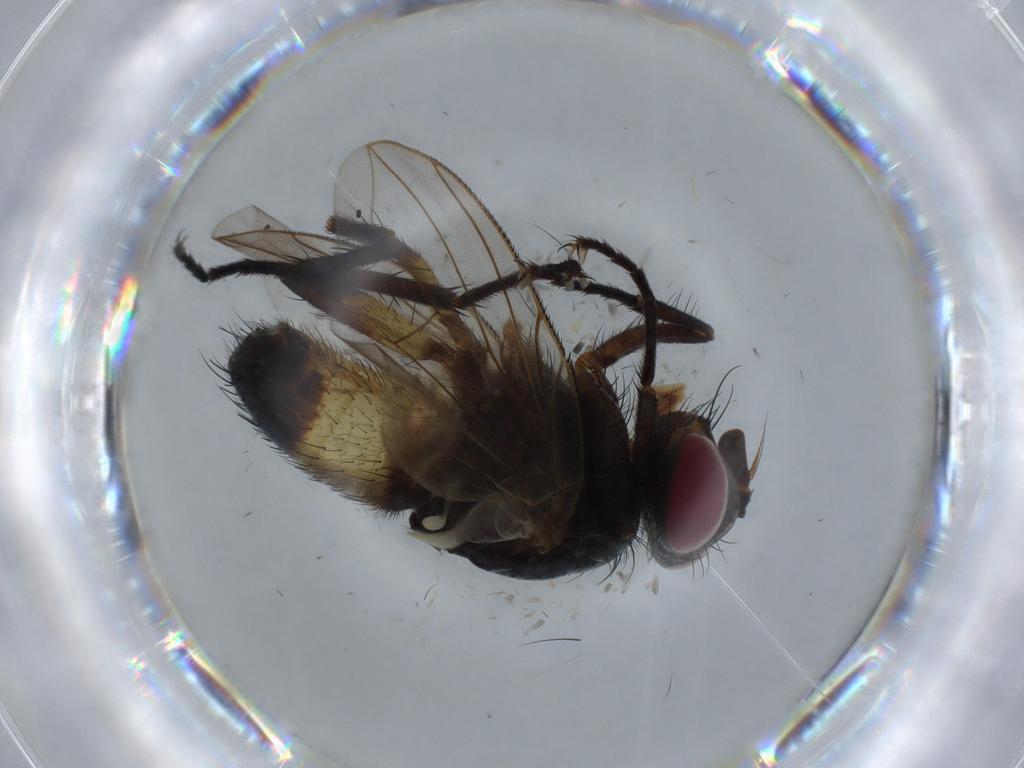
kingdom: Animalia
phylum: Arthropoda
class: Insecta
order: Diptera
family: Tachinidae
